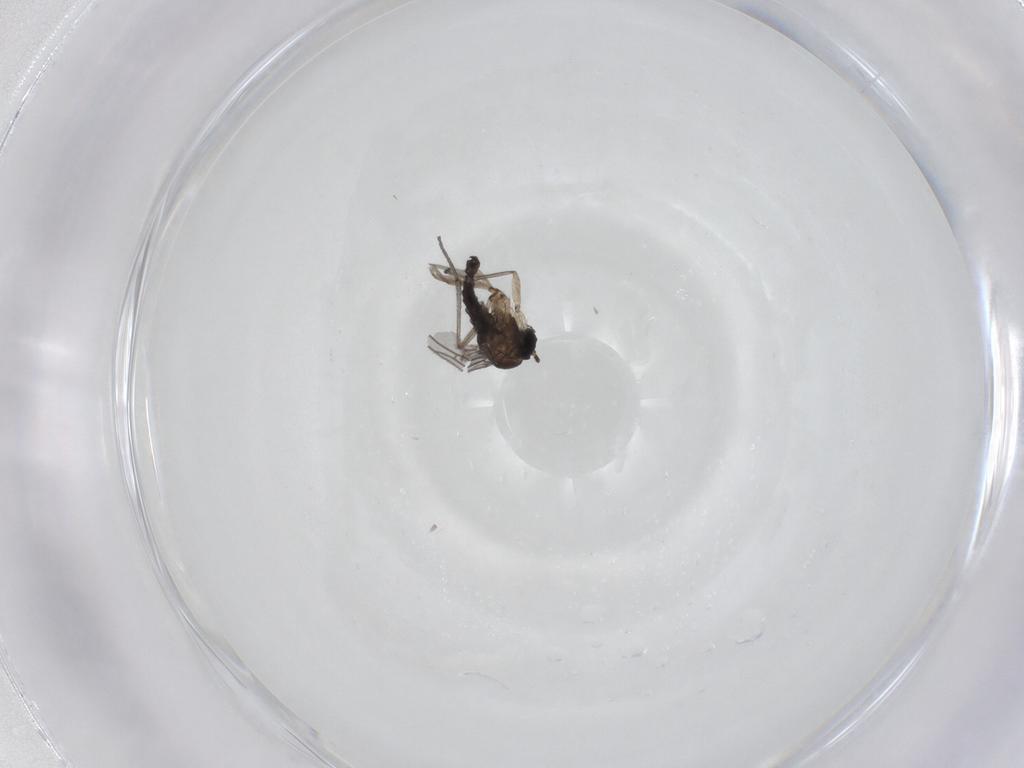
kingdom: Animalia
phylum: Arthropoda
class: Insecta
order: Diptera
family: Sciaridae
